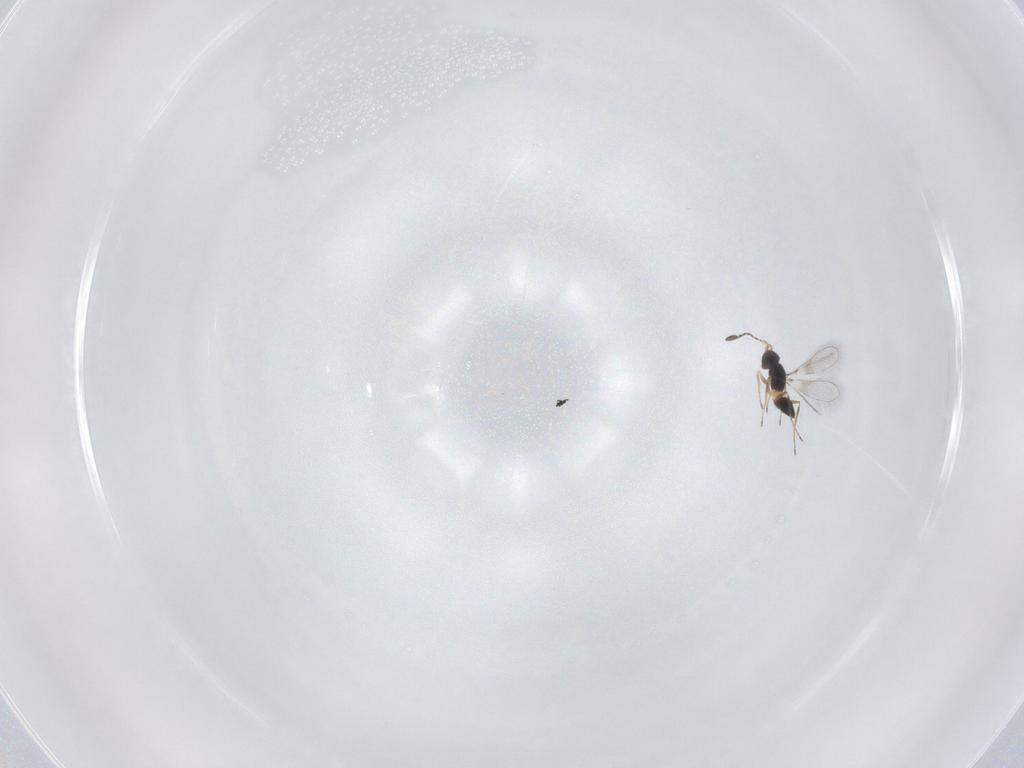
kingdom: Animalia
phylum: Arthropoda
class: Insecta
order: Hymenoptera
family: Mymaridae
